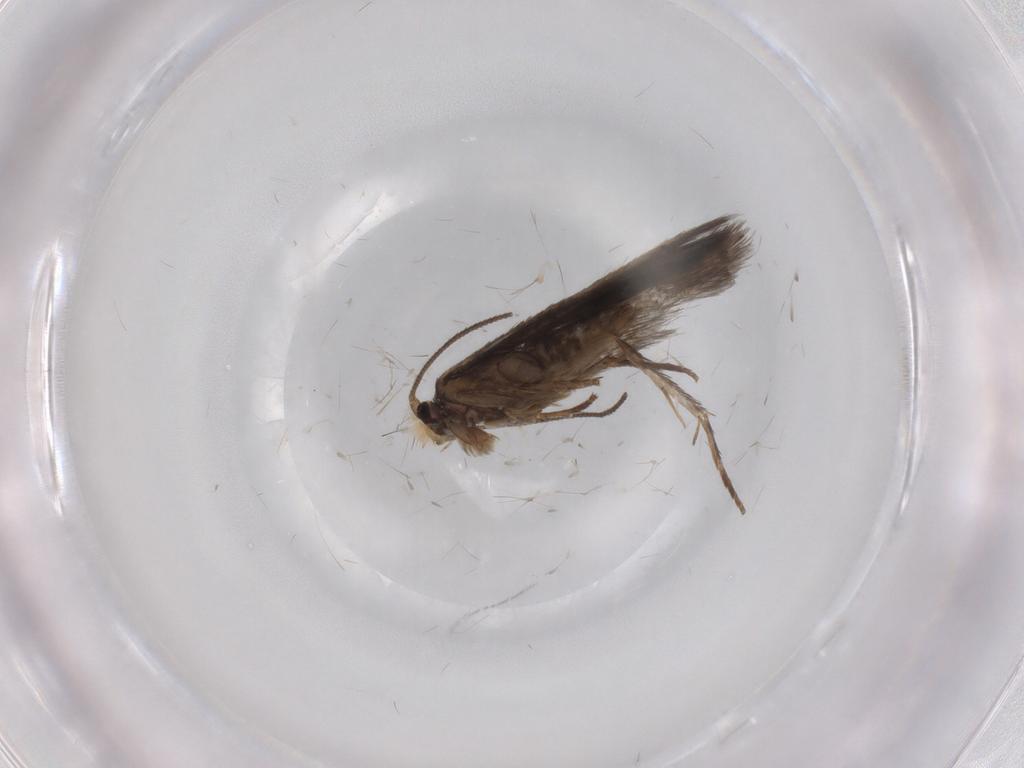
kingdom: Animalia
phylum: Arthropoda
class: Insecta
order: Lepidoptera
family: Nepticulidae
